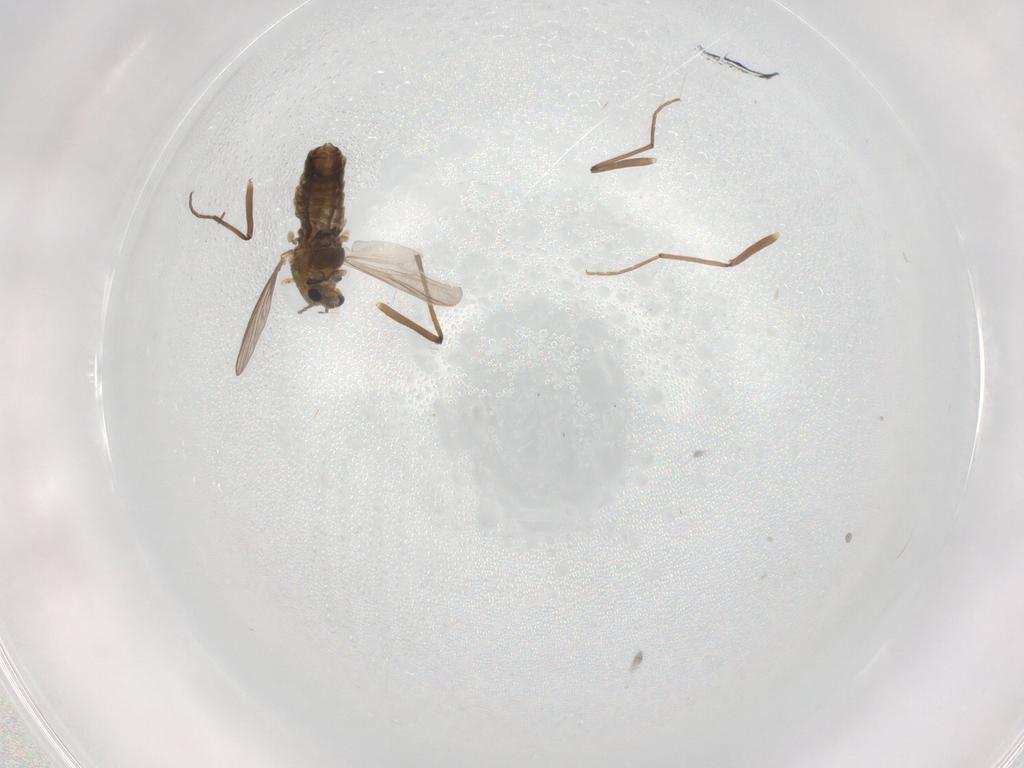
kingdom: Animalia
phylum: Arthropoda
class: Insecta
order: Diptera
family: Chironomidae
